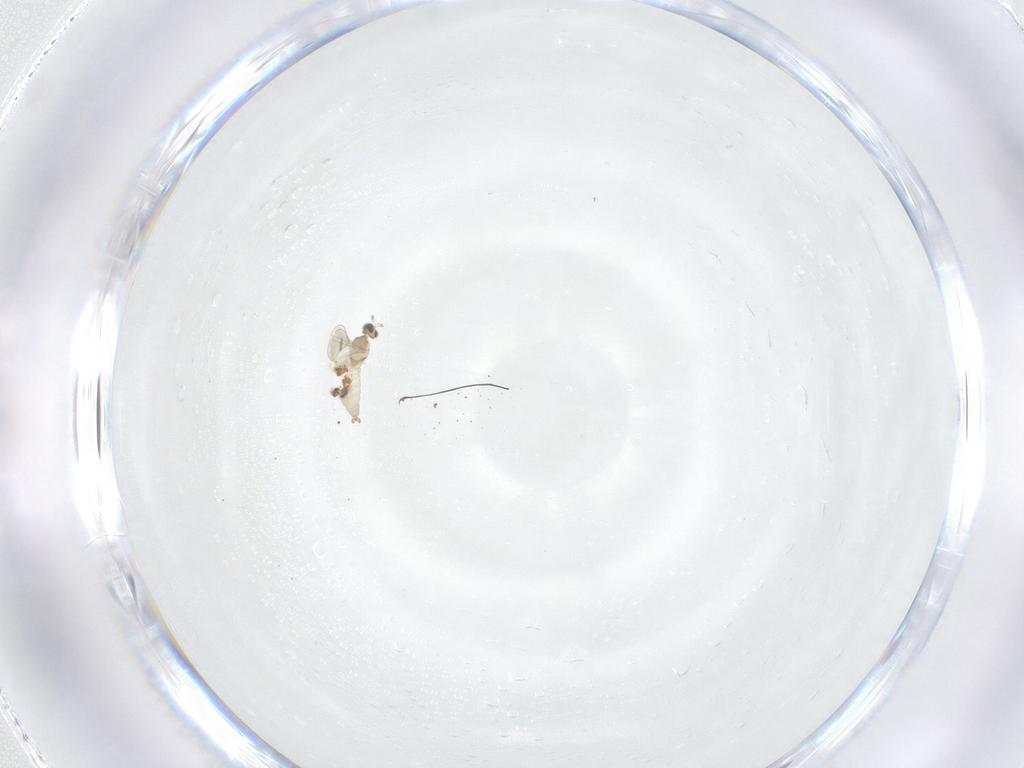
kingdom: Animalia
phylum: Arthropoda
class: Insecta
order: Diptera
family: Cecidomyiidae
